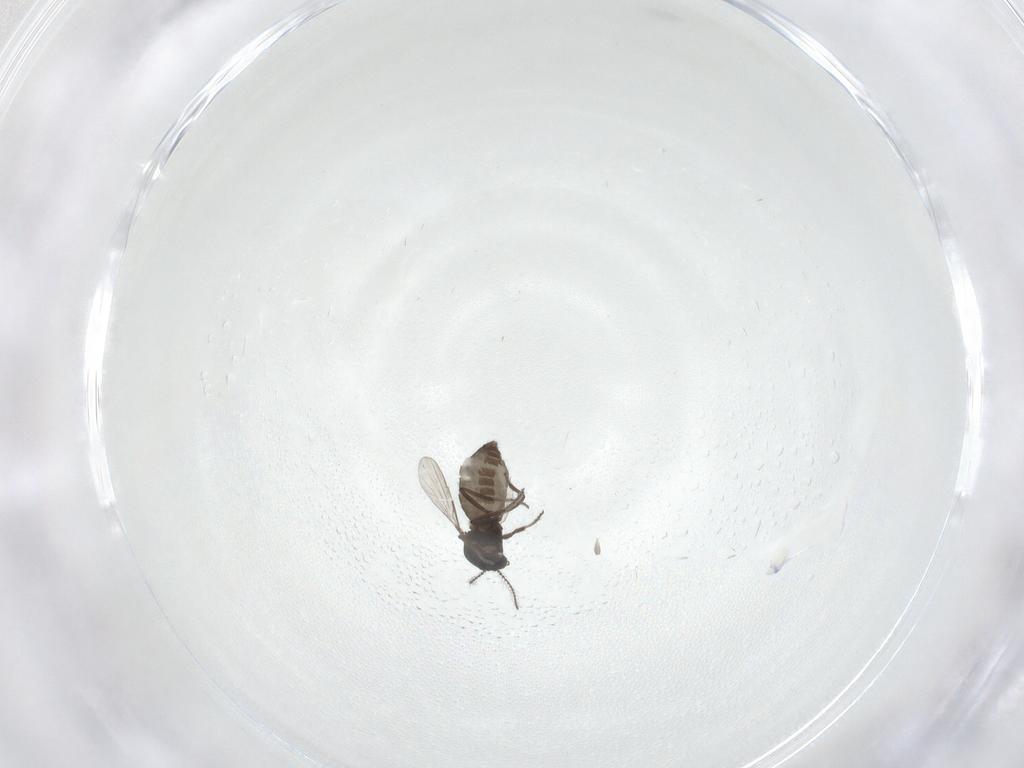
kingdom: Animalia
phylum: Arthropoda
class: Insecta
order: Diptera
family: Ceratopogonidae
